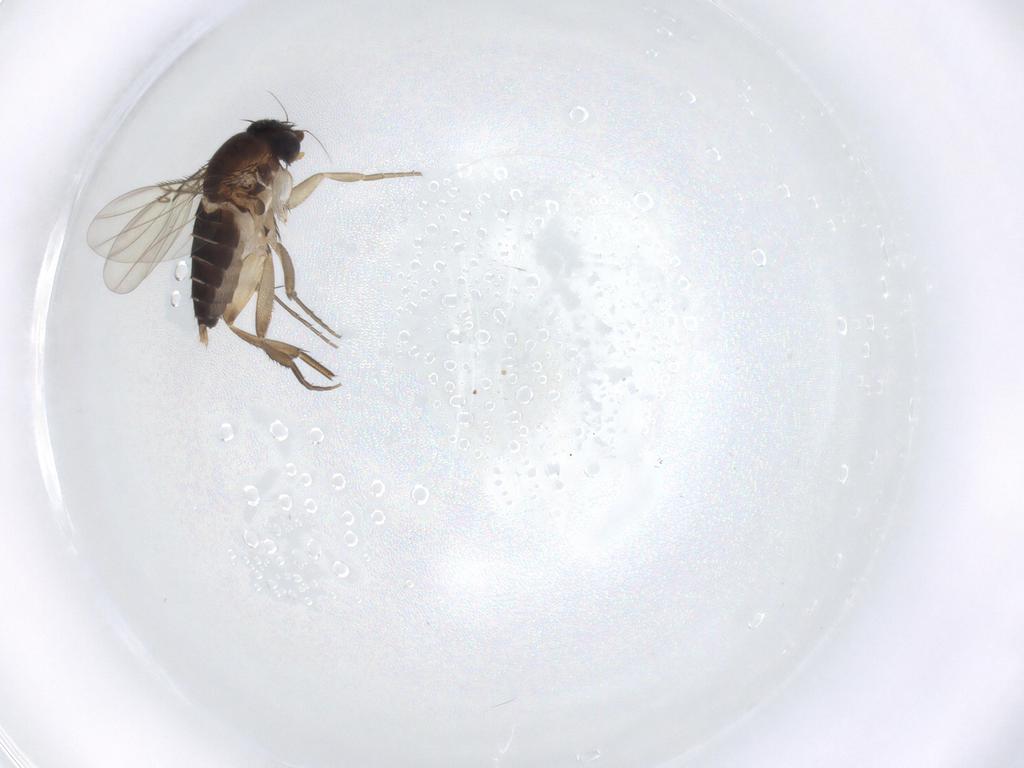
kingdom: Animalia
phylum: Arthropoda
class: Insecta
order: Diptera
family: Phoridae
